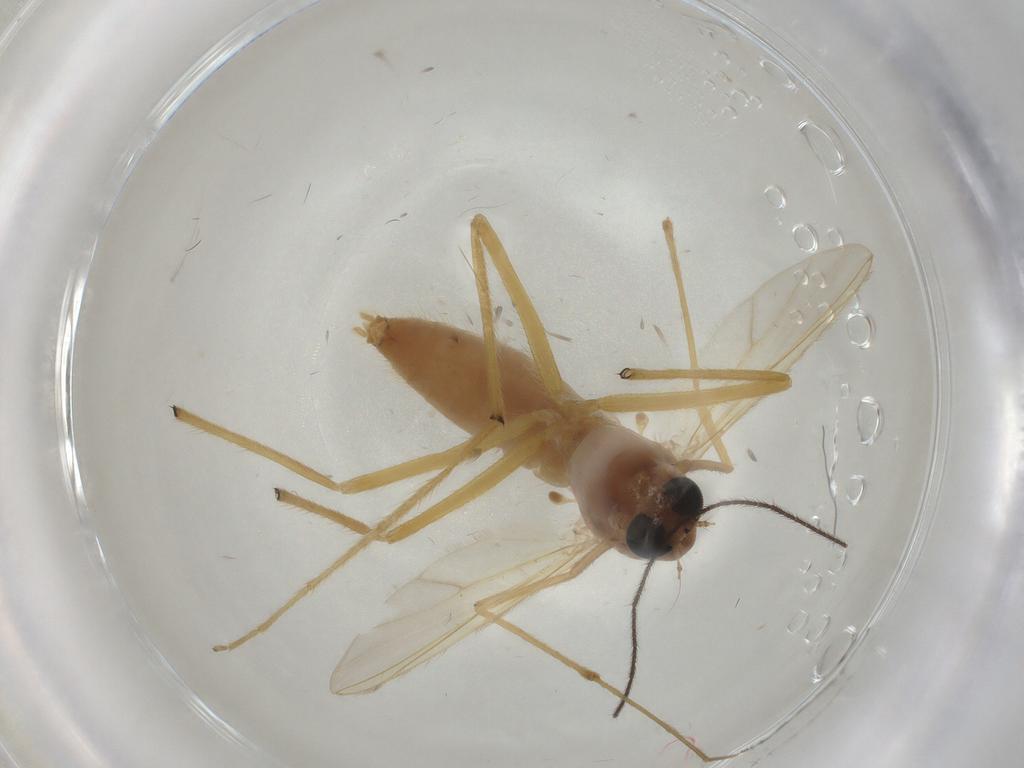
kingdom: Animalia
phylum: Arthropoda
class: Insecta
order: Diptera
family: Chironomidae
